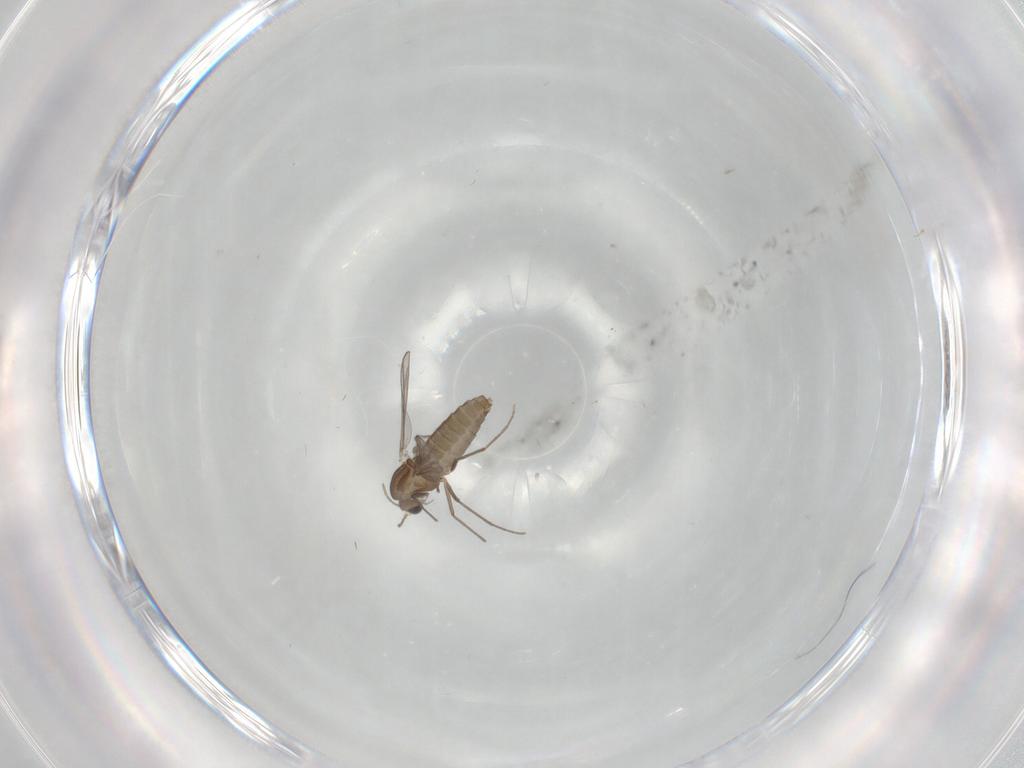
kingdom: Animalia
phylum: Arthropoda
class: Insecta
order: Diptera
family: Chironomidae
